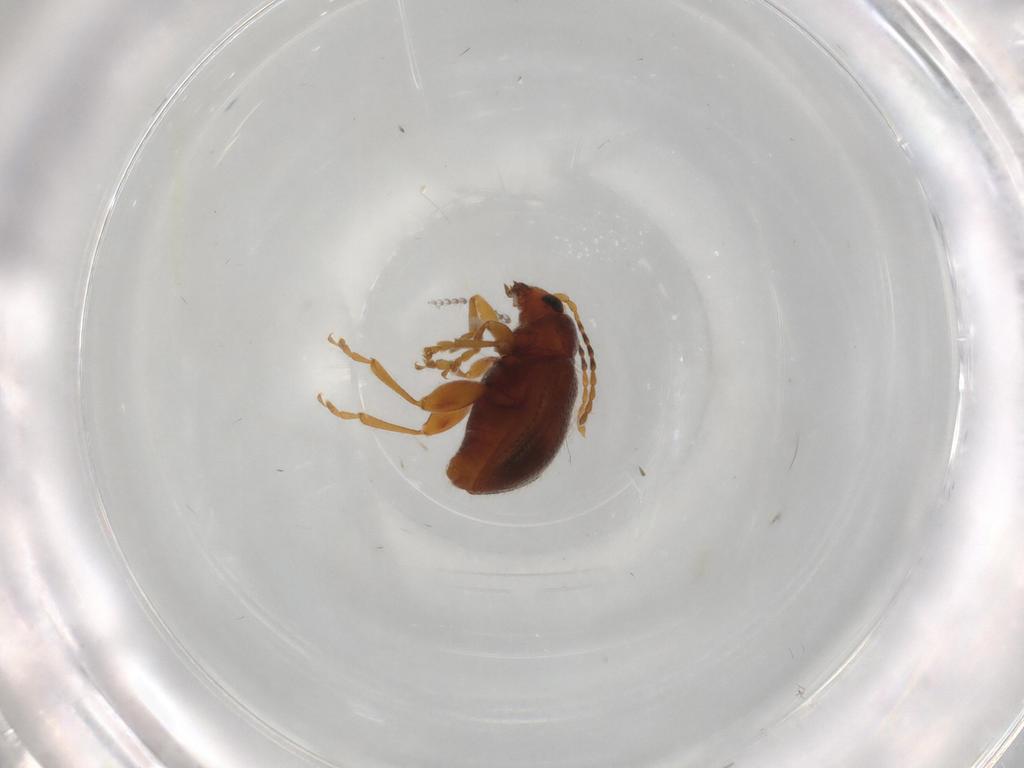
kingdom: Animalia
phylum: Arthropoda
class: Insecta
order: Coleoptera
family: Chrysomelidae
